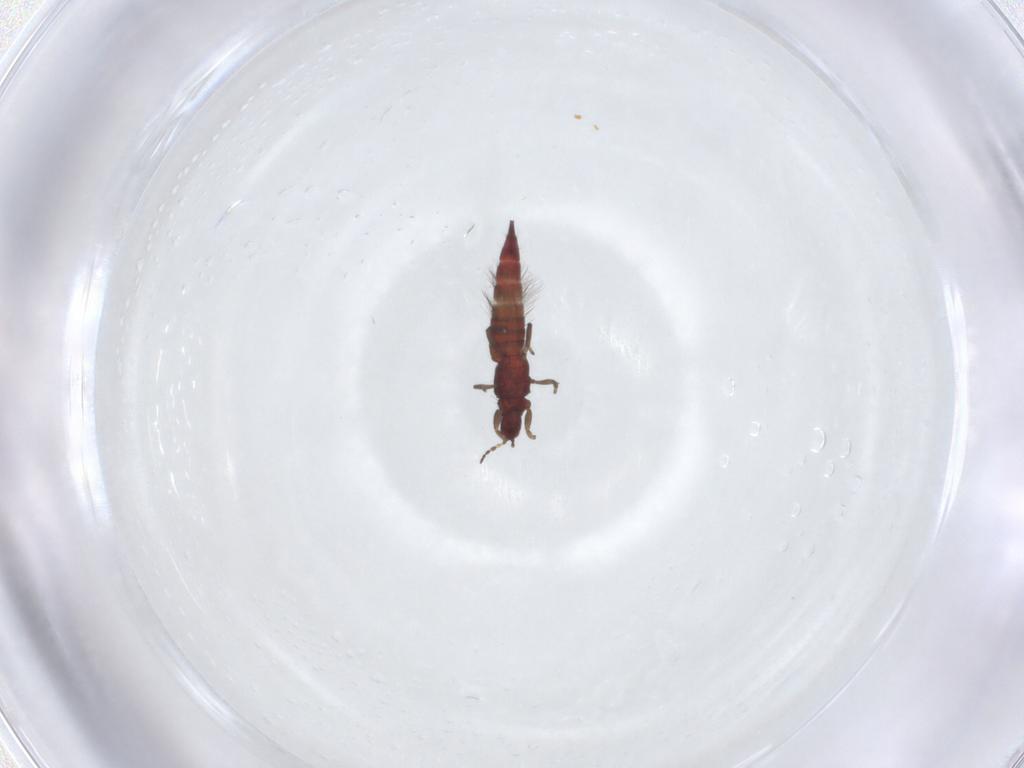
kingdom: Animalia
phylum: Arthropoda
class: Insecta
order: Thysanoptera
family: Phlaeothripidae
